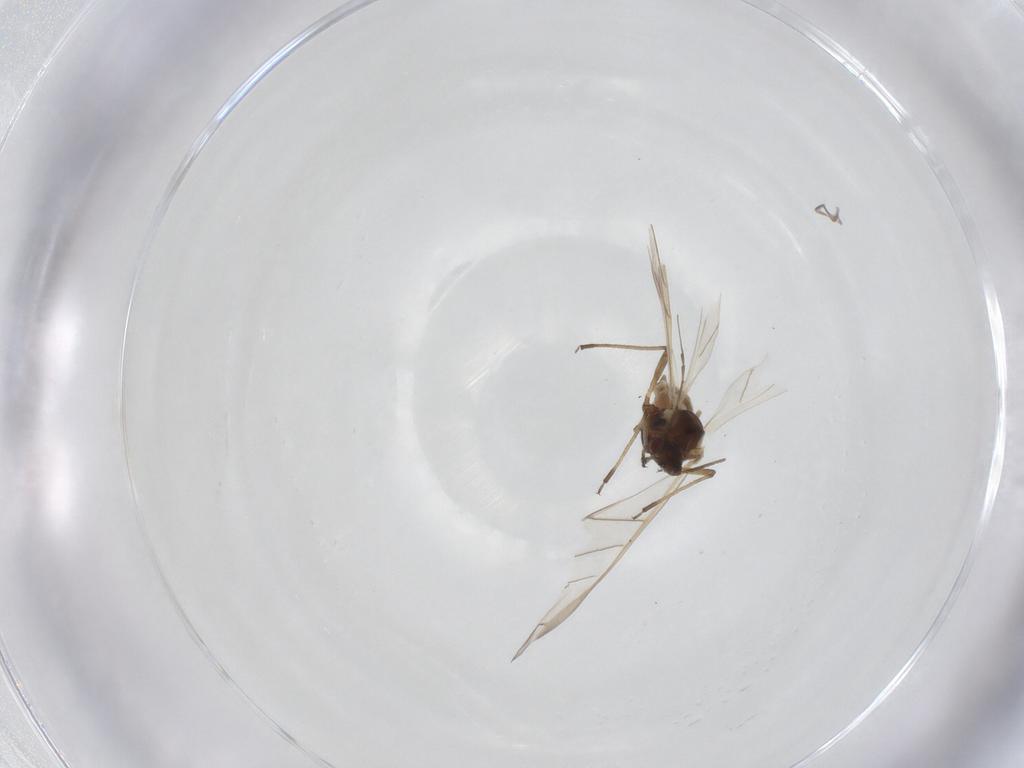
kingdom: Animalia
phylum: Arthropoda
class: Insecta
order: Hemiptera
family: Aphididae
